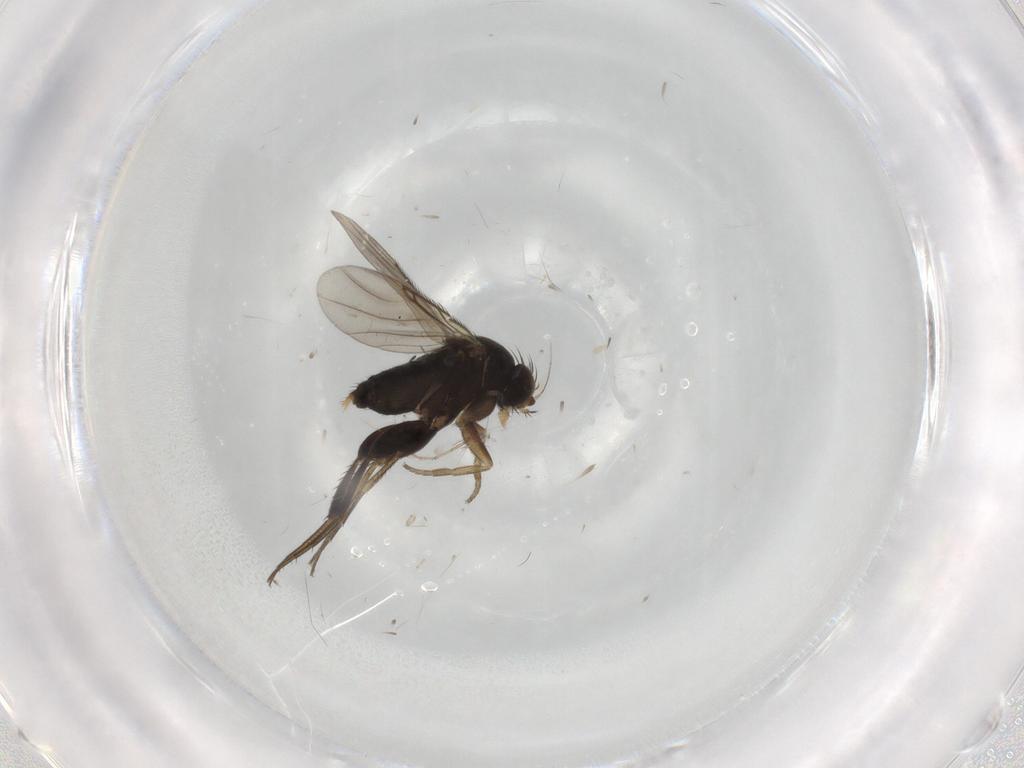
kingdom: Animalia
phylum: Arthropoda
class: Insecta
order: Diptera
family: Phoridae
